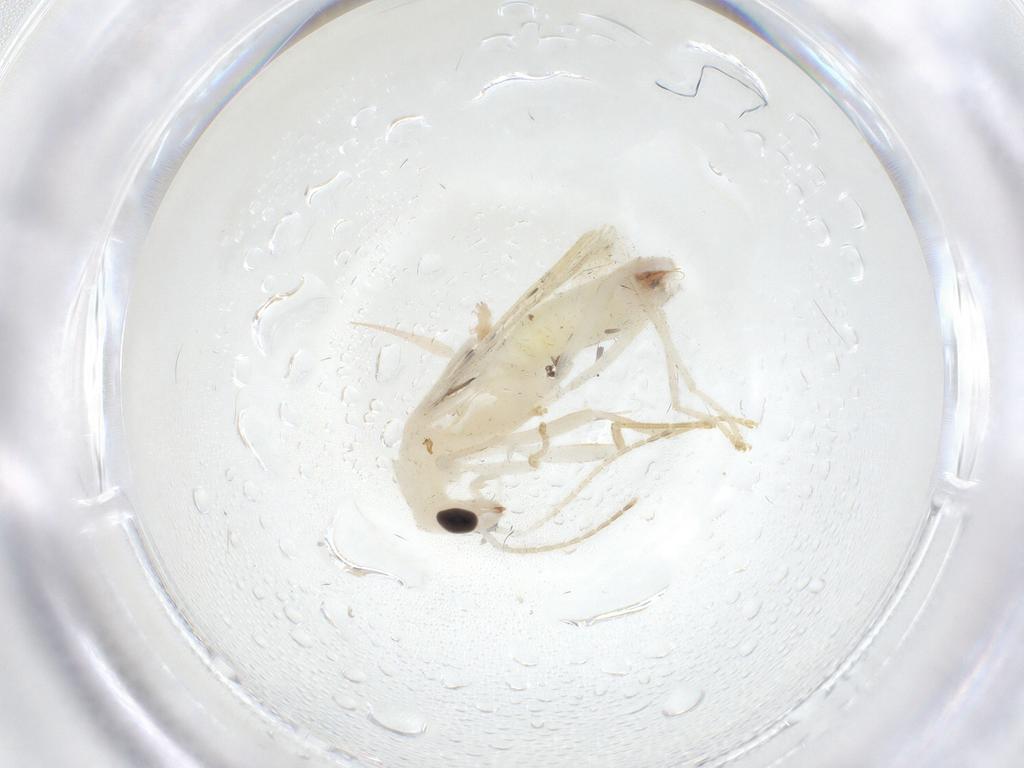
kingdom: Animalia
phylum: Arthropoda
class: Insecta
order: Coleoptera
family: Cantharidae
